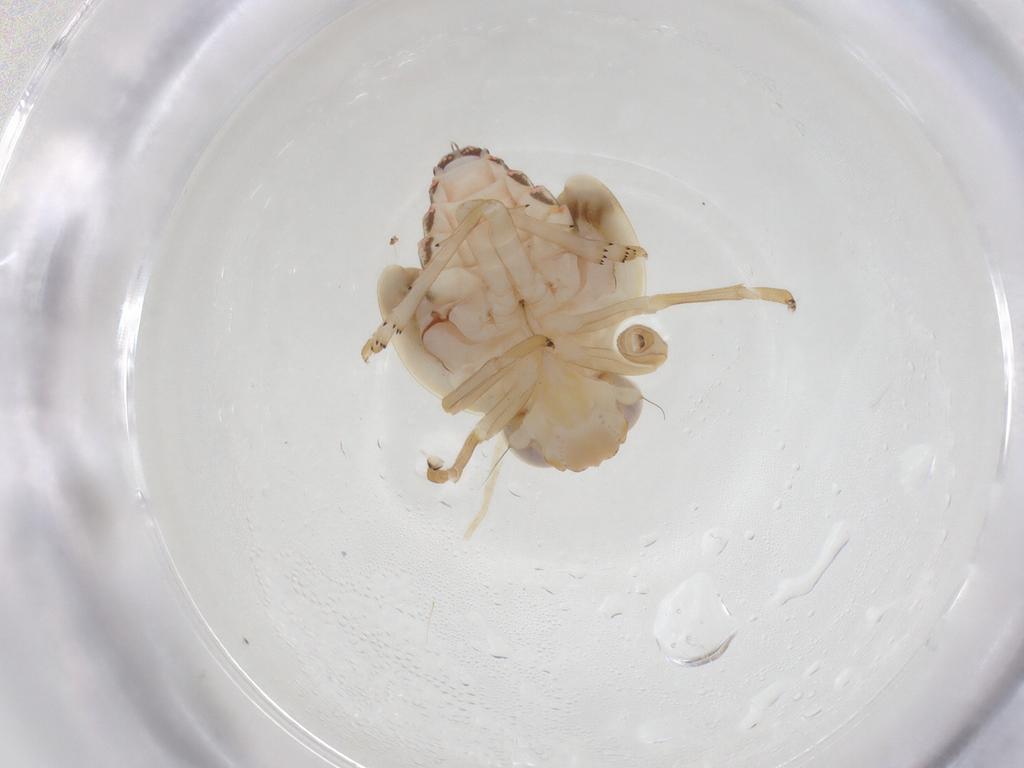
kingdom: Animalia
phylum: Arthropoda
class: Insecta
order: Hemiptera
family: Nogodinidae
